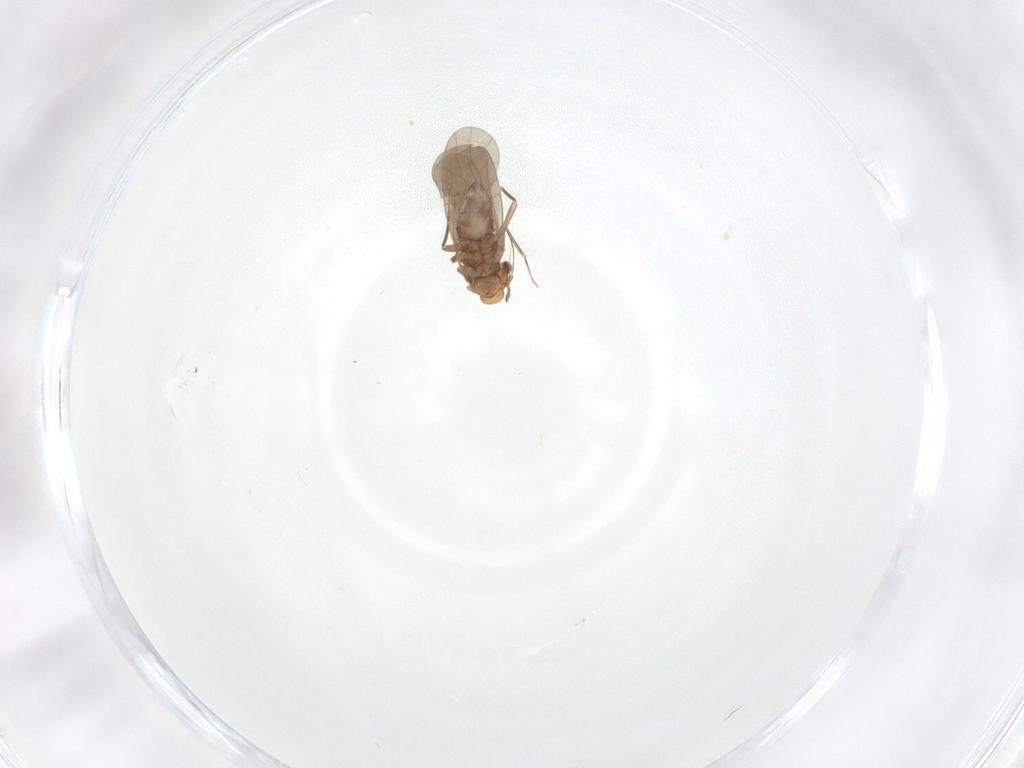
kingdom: Animalia
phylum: Arthropoda
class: Insecta
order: Psocodea
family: Lepidopsocidae
